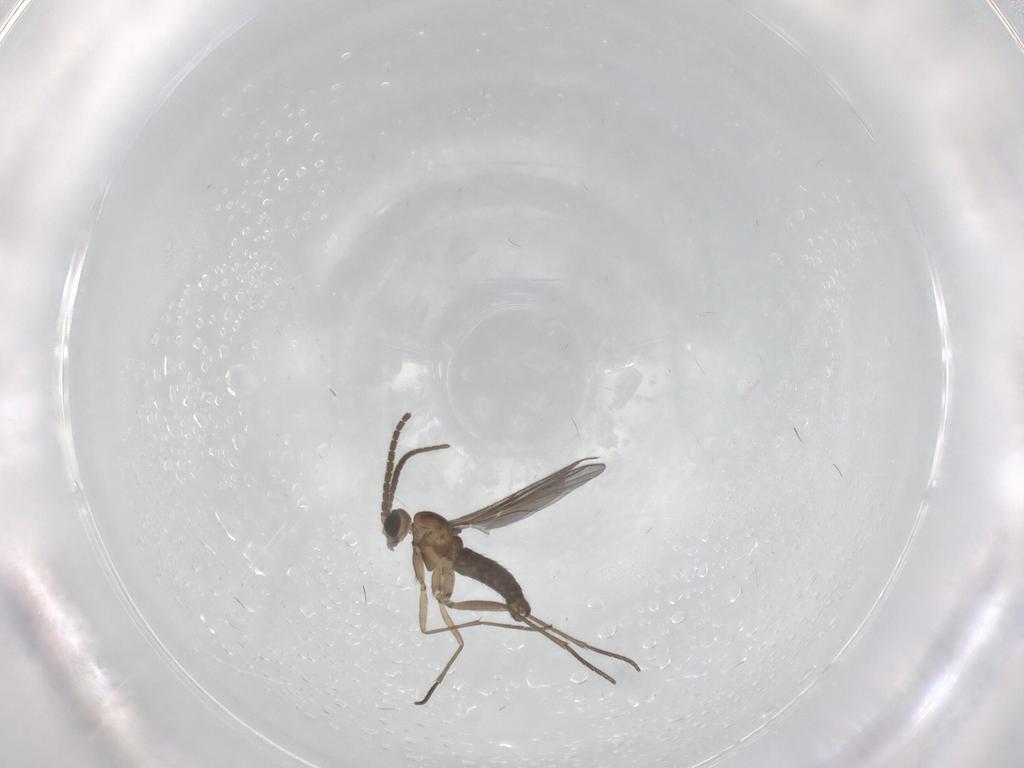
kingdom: Animalia
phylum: Arthropoda
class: Insecta
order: Diptera
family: Sciaridae
